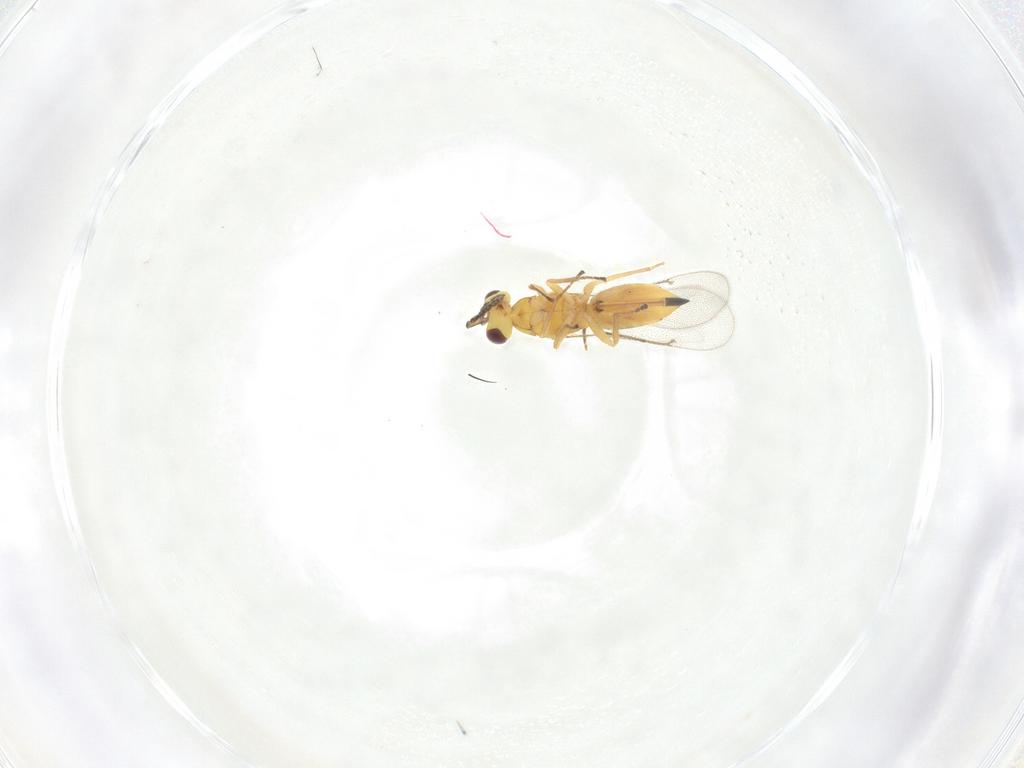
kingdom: Animalia
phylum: Arthropoda
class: Insecta
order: Hymenoptera
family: Eulophidae
